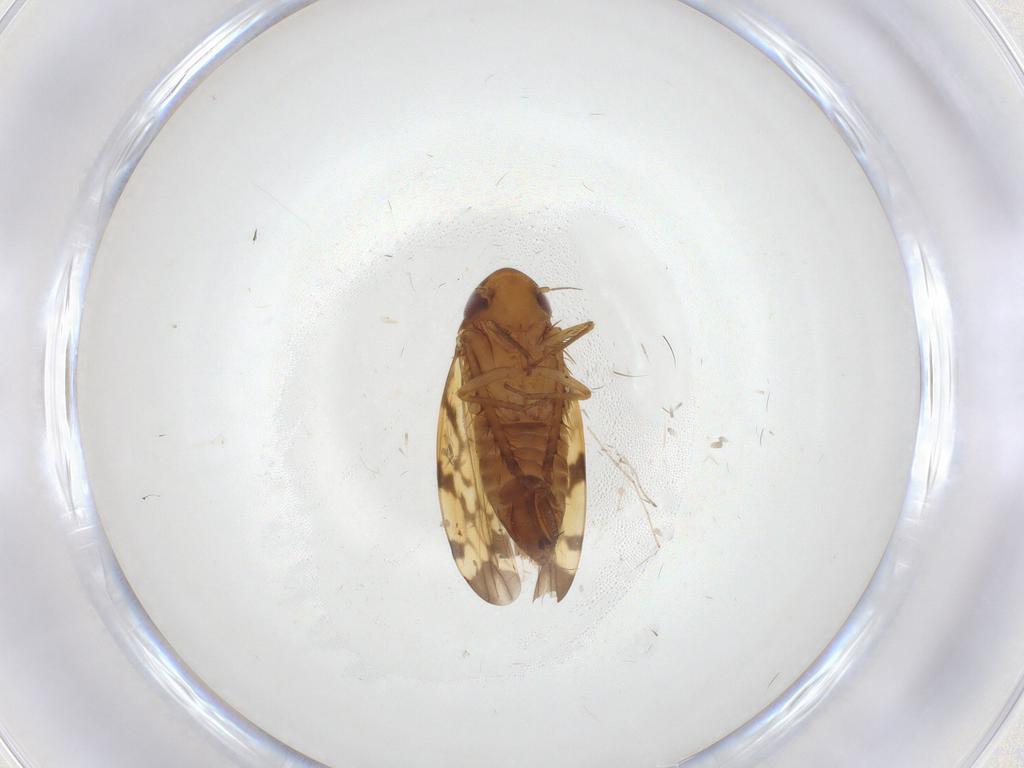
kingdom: Animalia
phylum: Arthropoda
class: Insecta
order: Hemiptera
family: Cicadellidae
